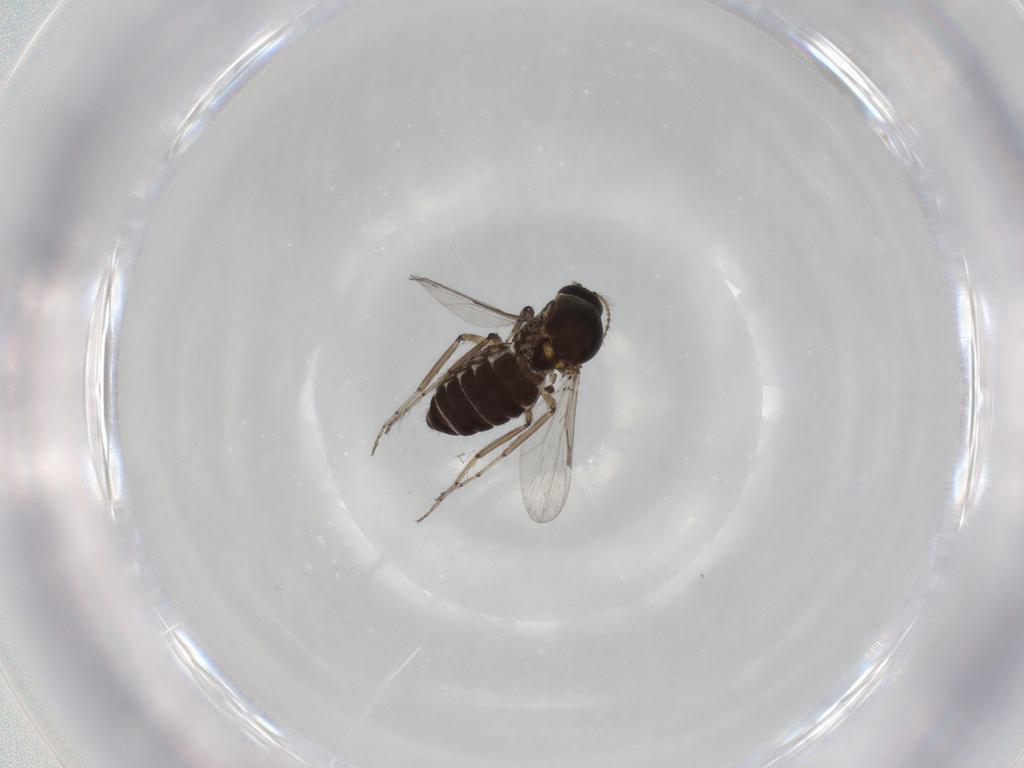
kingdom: Animalia
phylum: Arthropoda
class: Insecta
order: Diptera
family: Ceratopogonidae
